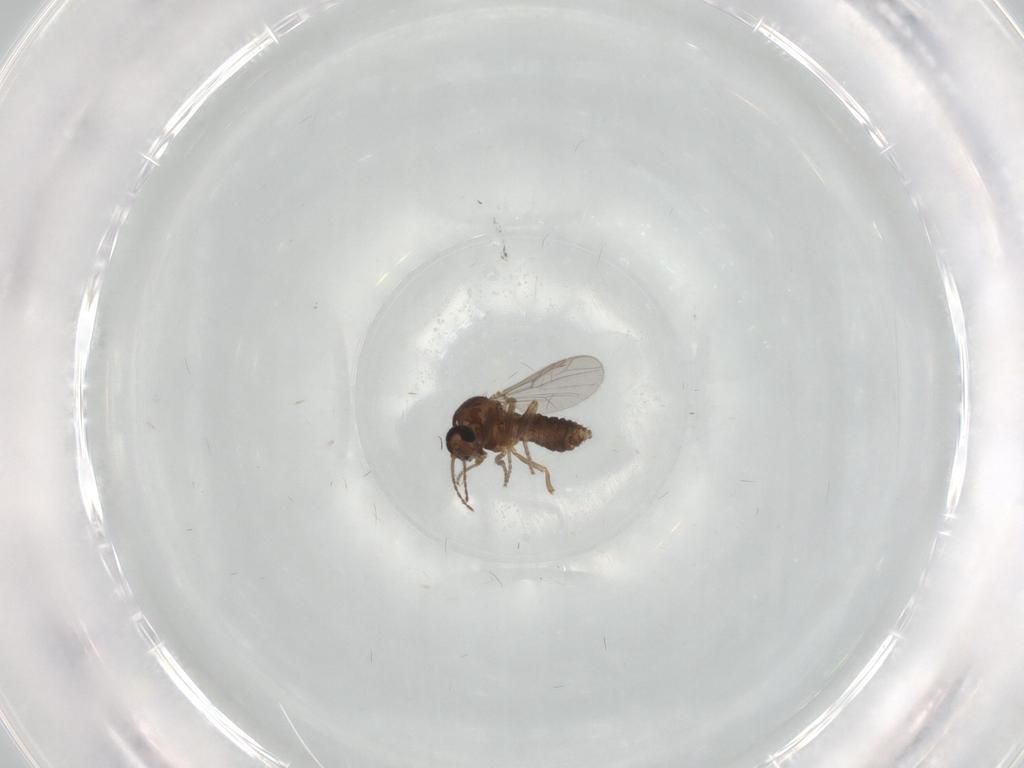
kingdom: Animalia
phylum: Arthropoda
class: Insecta
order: Diptera
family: Ceratopogonidae
